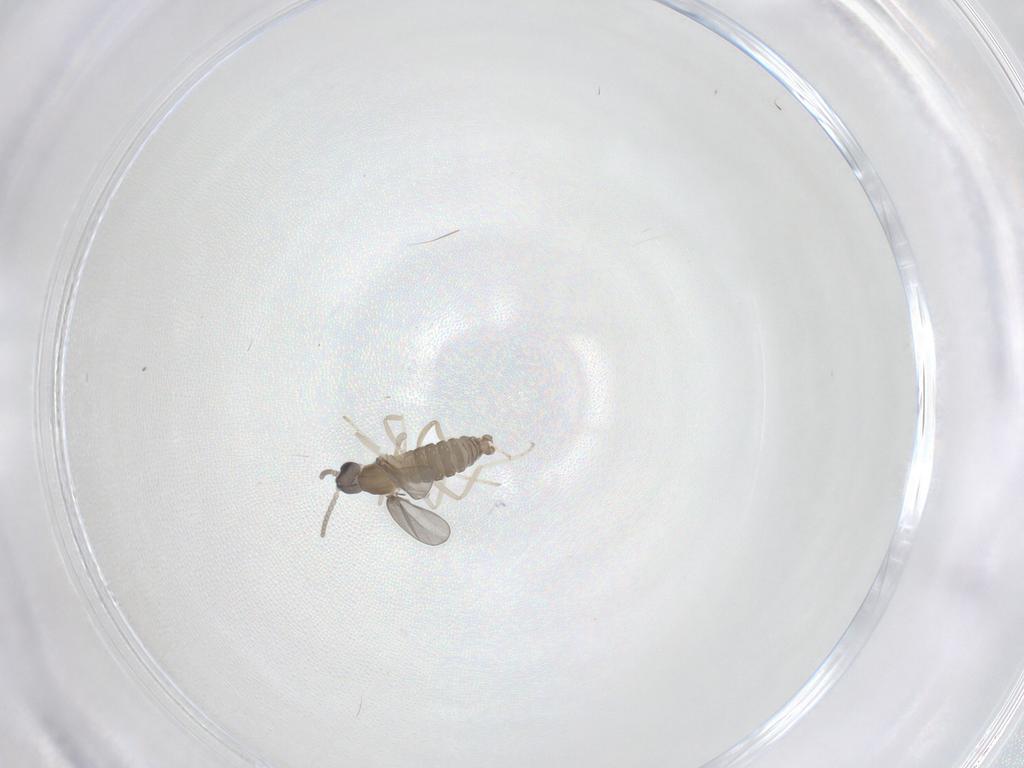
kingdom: Animalia
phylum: Arthropoda
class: Insecta
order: Diptera
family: Cecidomyiidae
